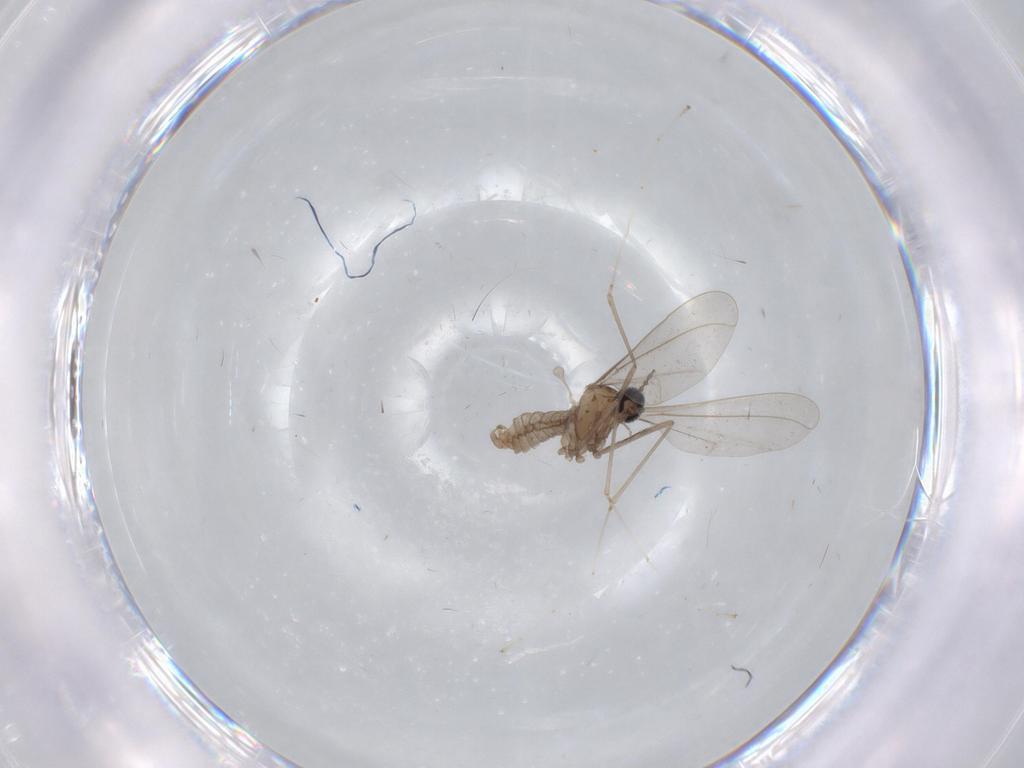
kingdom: Animalia
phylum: Arthropoda
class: Insecta
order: Diptera
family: Cecidomyiidae
